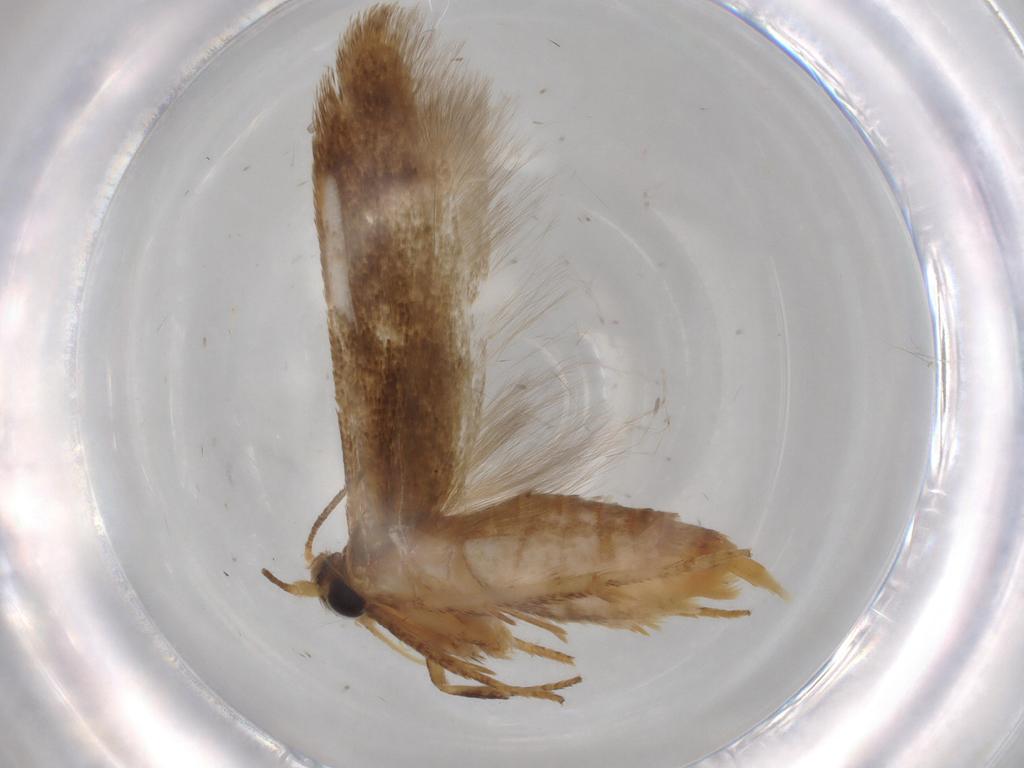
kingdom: Animalia
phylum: Arthropoda
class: Insecta
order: Lepidoptera
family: Blastobasidae
